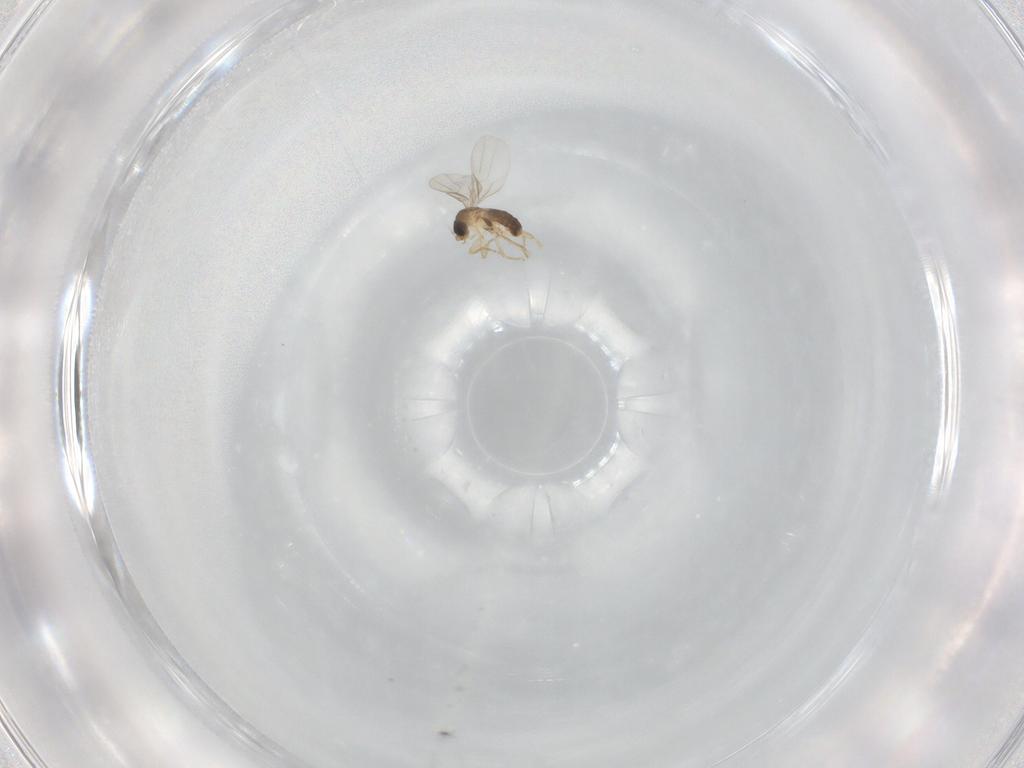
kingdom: Animalia
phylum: Arthropoda
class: Insecta
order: Diptera
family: Phoridae
